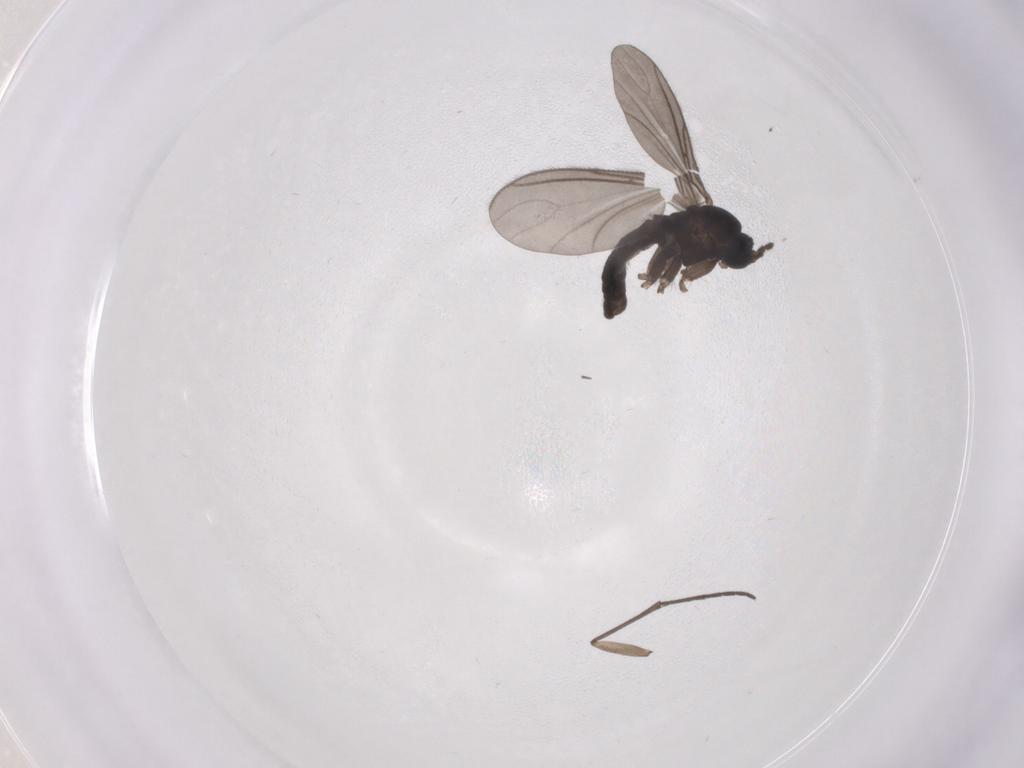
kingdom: Animalia
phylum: Arthropoda
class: Insecta
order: Diptera
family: Sciaridae
